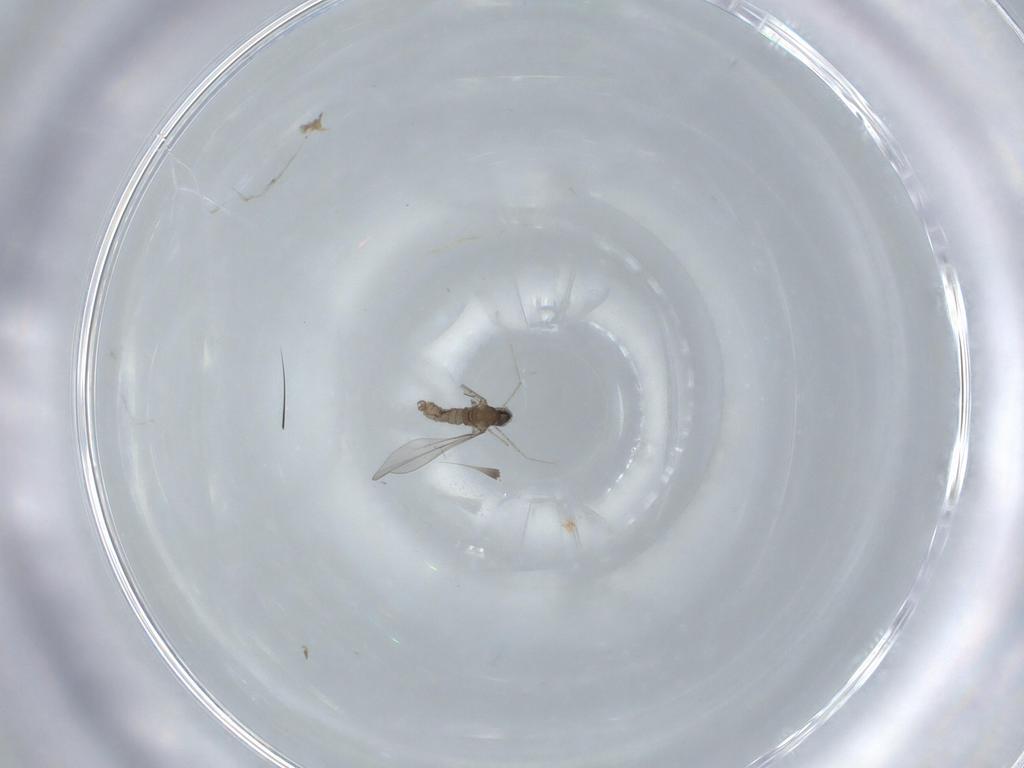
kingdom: Animalia
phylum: Arthropoda
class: Insecta
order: Diptera
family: Cecidomyiidae
